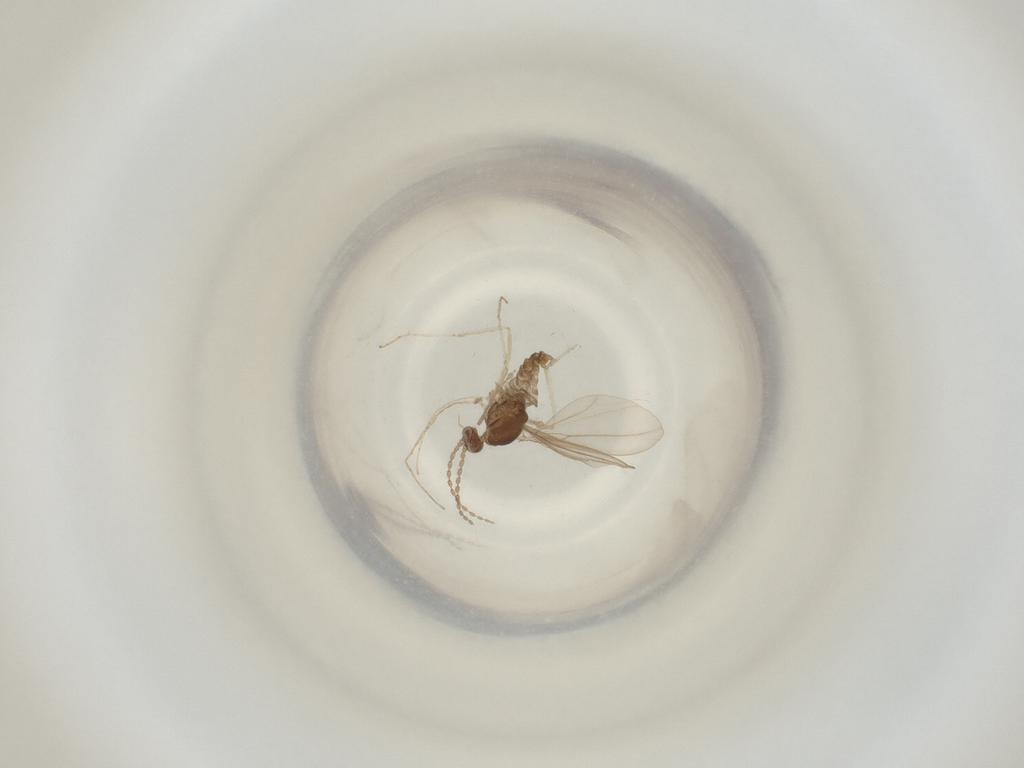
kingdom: Animalia
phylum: Arthropoda
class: Insecta
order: Diptera
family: Cecidomyiidae
